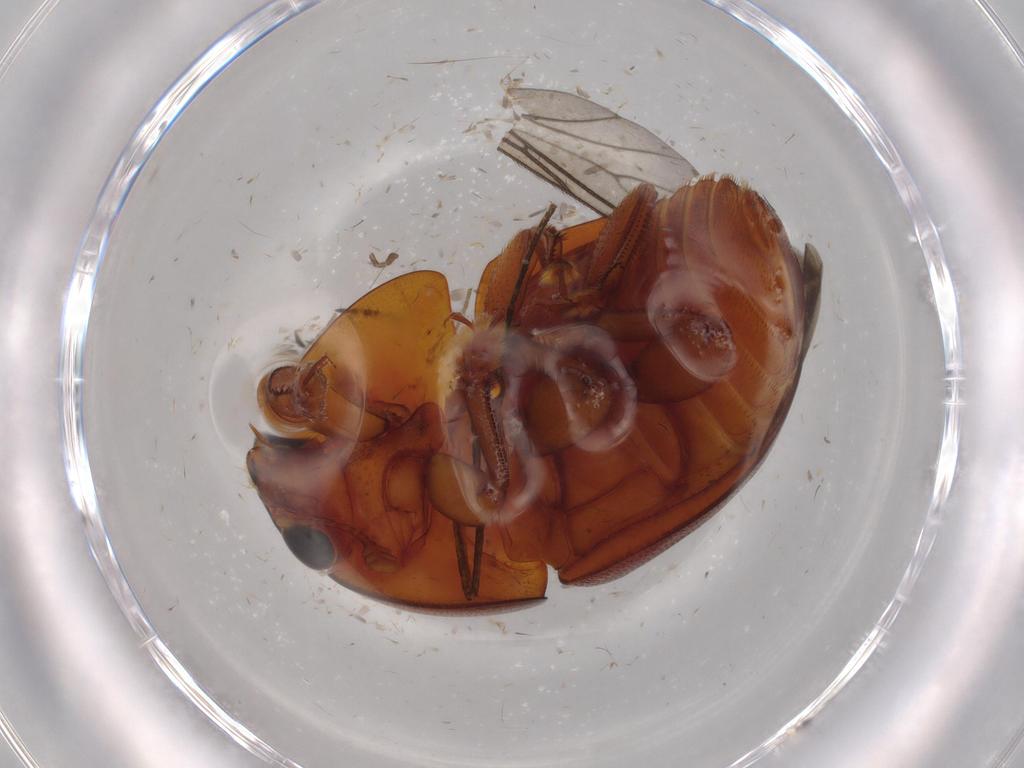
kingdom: Animalia
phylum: Arthropoda
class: Insecta
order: Coleoptera
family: Nitidulidae
